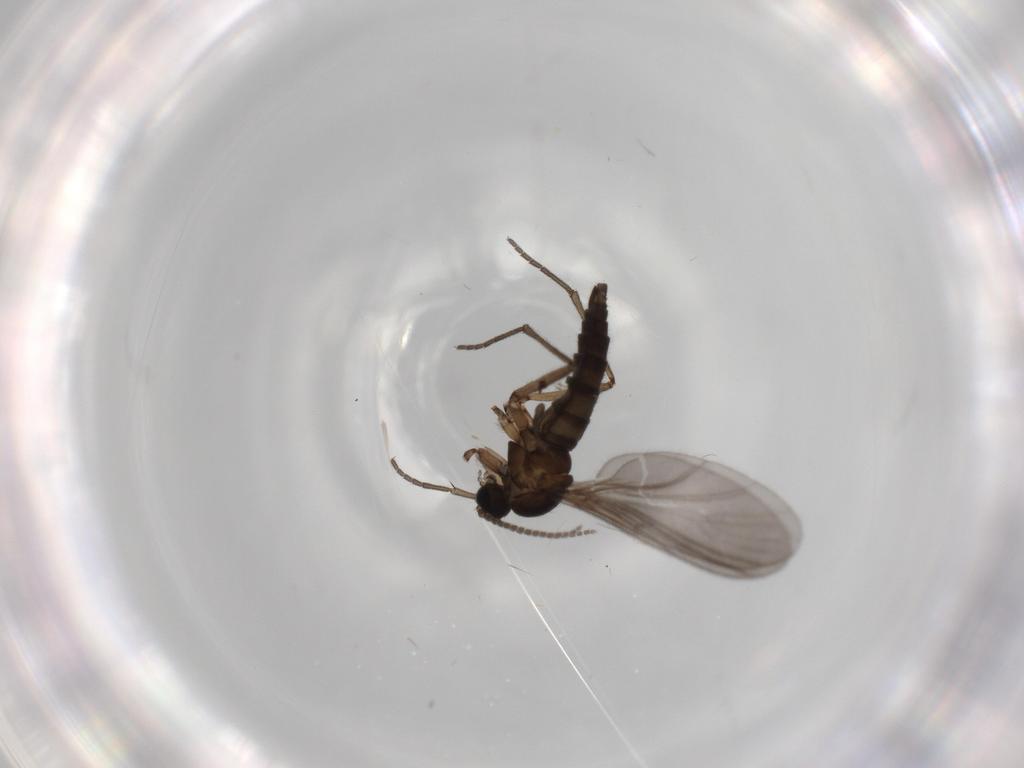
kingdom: Animalia
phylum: Arthropoda
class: Insecta
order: Diptera
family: Sciaridae
